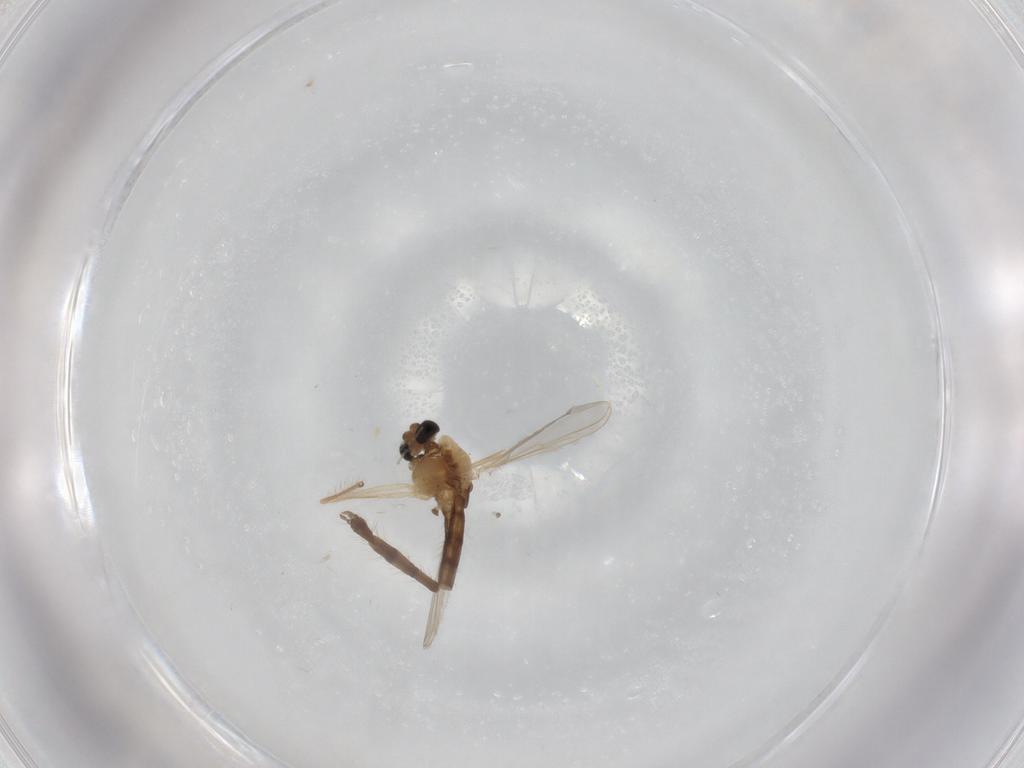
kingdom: Animalia
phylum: Arthropoda
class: Insecta
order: Diptera
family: Chironomidae
